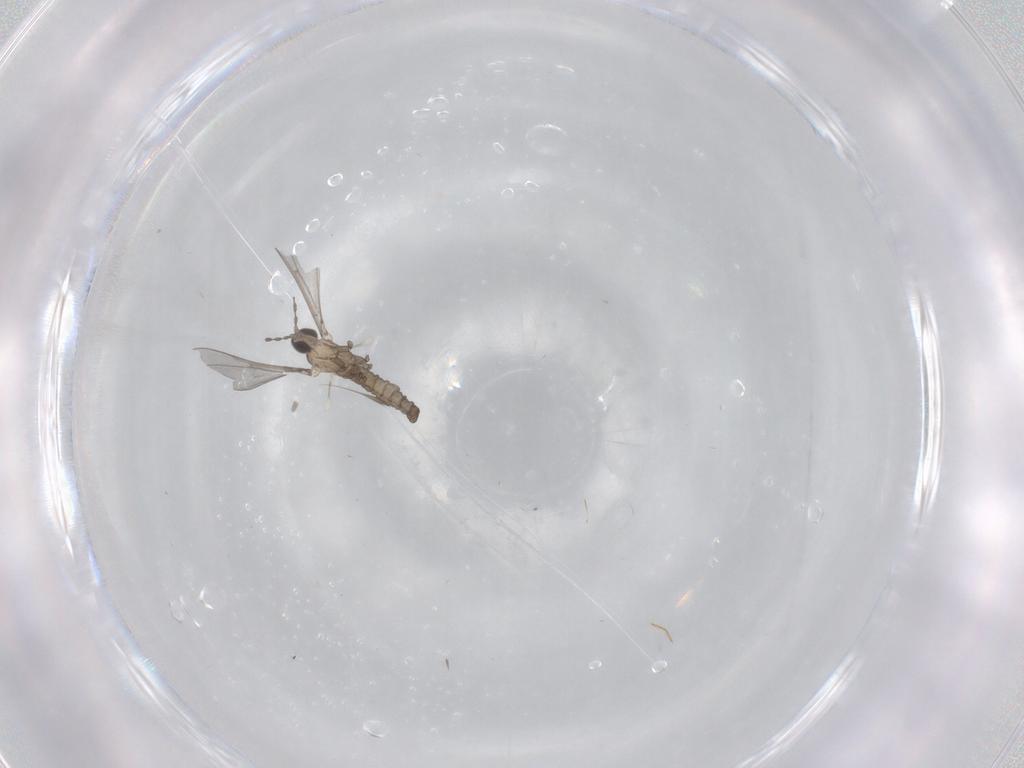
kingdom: Animalia
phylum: Arthropoda
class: Insecta
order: Diptera
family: Cecidomyiidae
